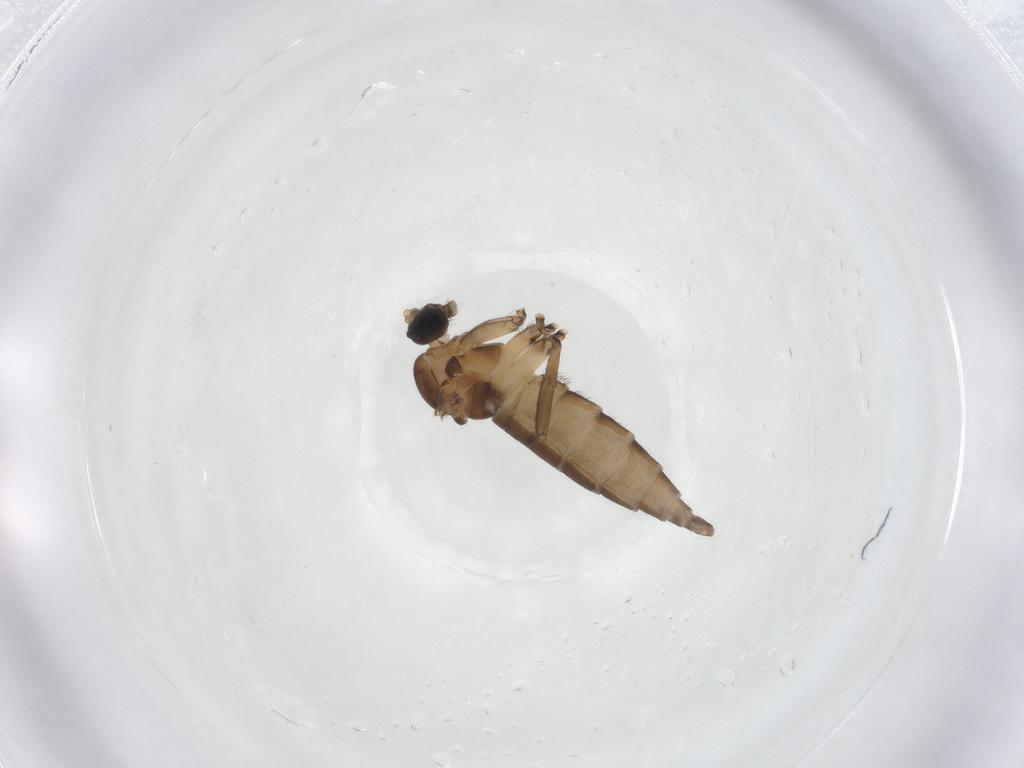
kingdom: Animalia
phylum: Arthropoda
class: Insecta
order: Diptera
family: Sciaridae
